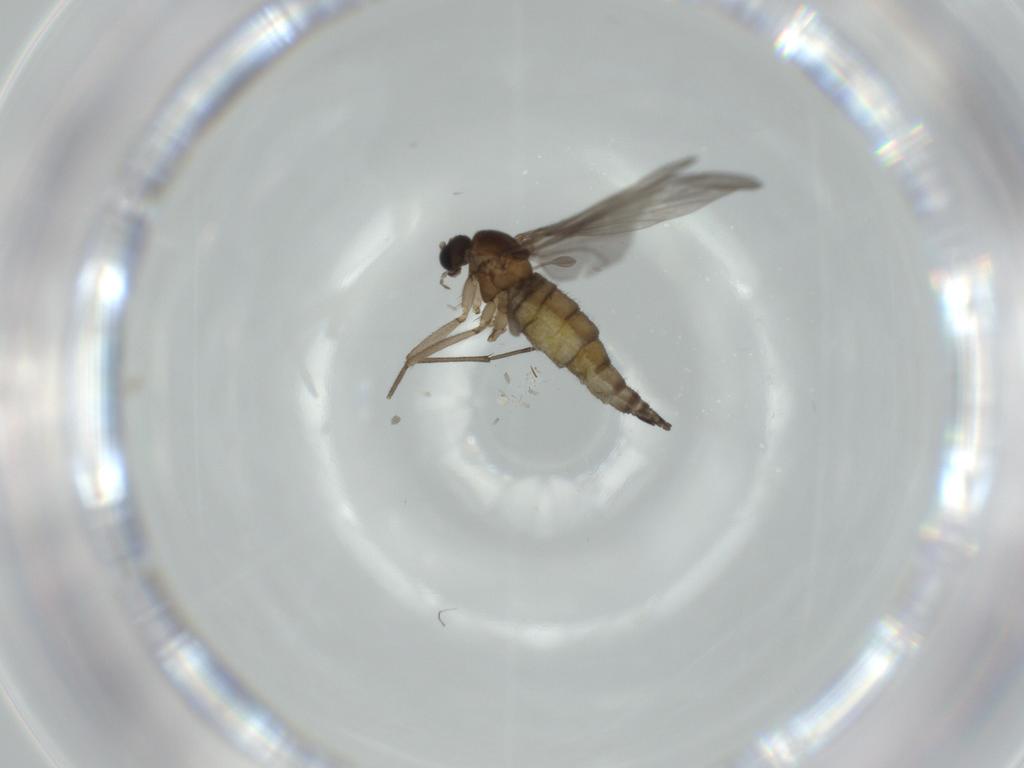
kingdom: Animalia
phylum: Arthropoda
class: Insecta
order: Diptera
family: Sciaridae
